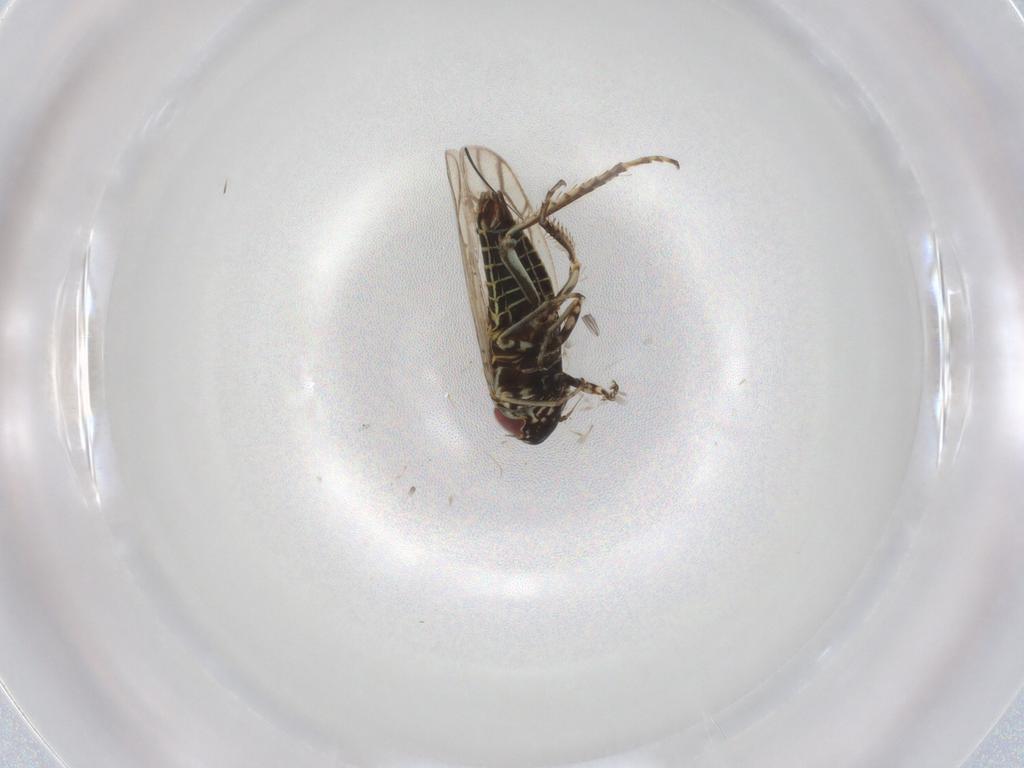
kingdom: Animalia
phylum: Arthropoda
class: Insecta
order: Hemiptera
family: Cicadellidae
